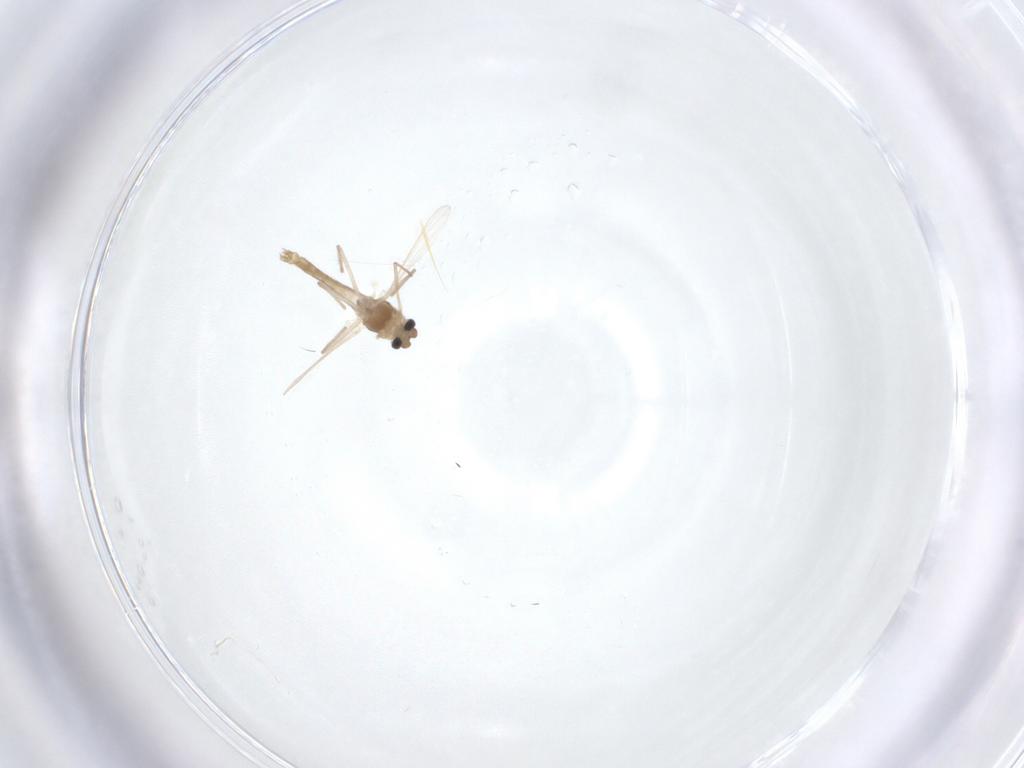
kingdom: Animalia
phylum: Arthropoda
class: Insecta
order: Diptera
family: Chironomidae
